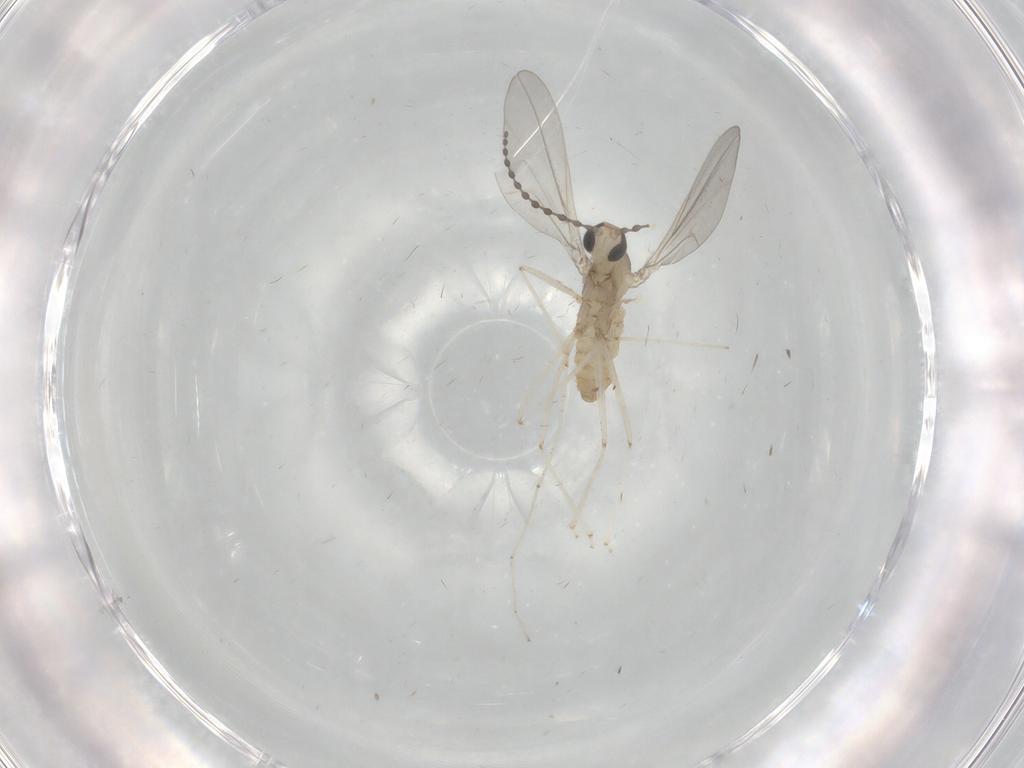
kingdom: Animalia
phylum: Arthropoda
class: Insecta
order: Diptera
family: Sciaridae
